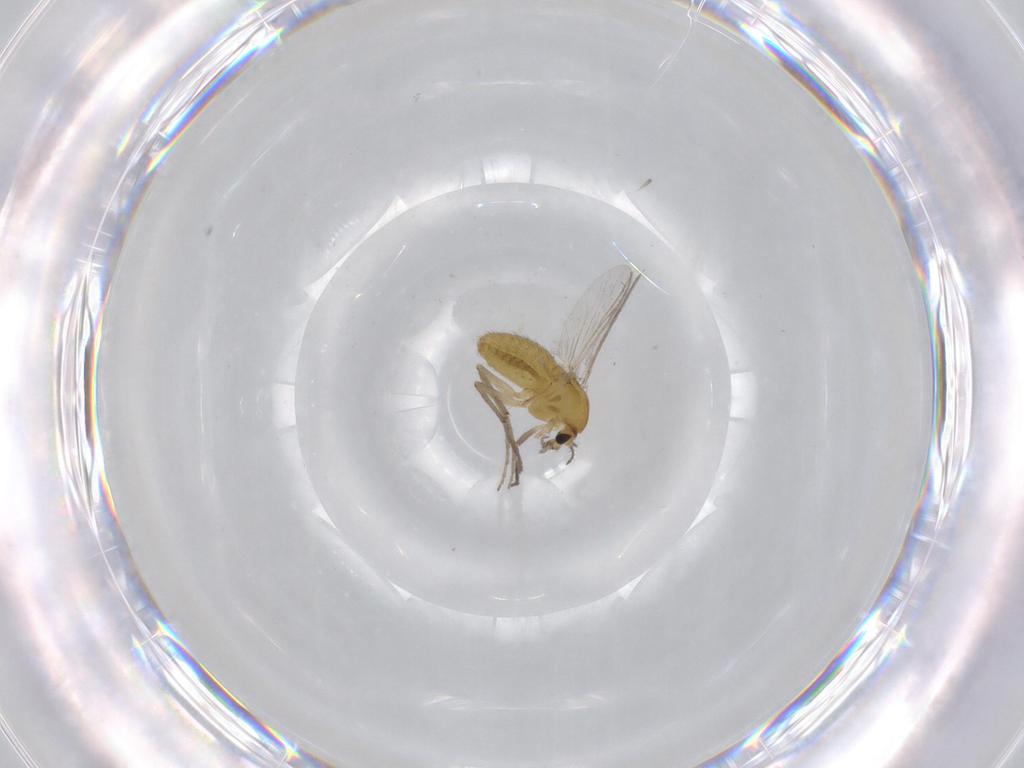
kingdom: Animalia
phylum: Arthropoda
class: Insecta
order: Diptera
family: Chironomidae
